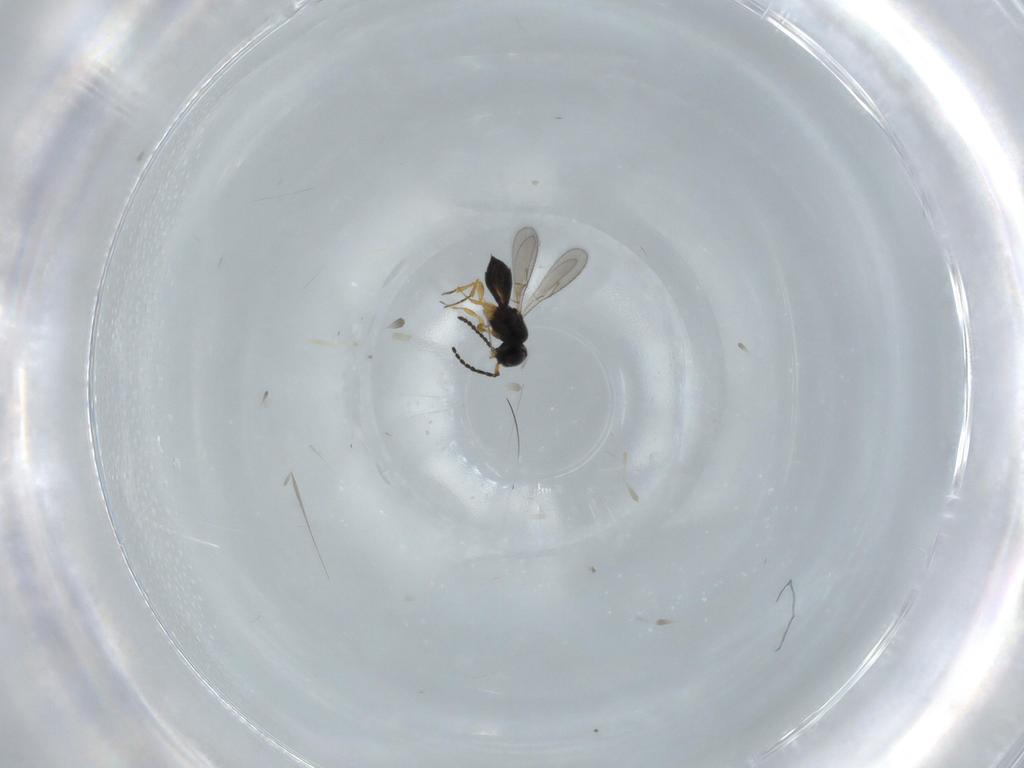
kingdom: Animalia
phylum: Arthropoda
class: Insecta
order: Hymenoptera
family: Scelionidae
